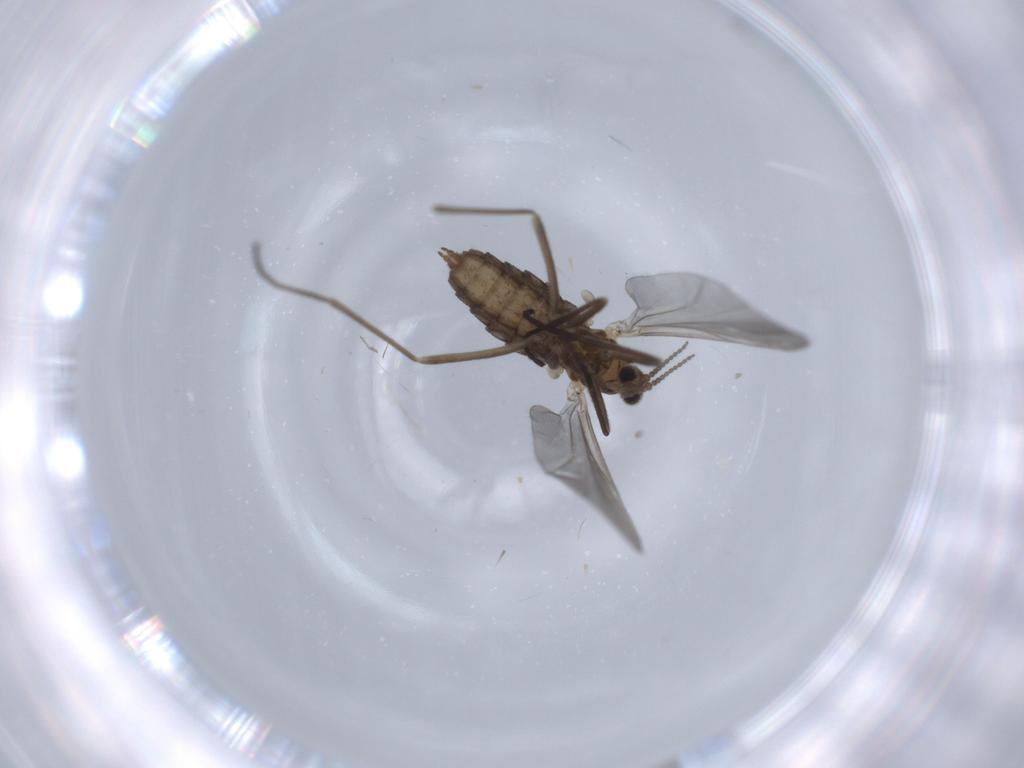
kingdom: Animalia
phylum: Arthropoda
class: Insecta
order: Diptera
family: Cecidomyiidae
